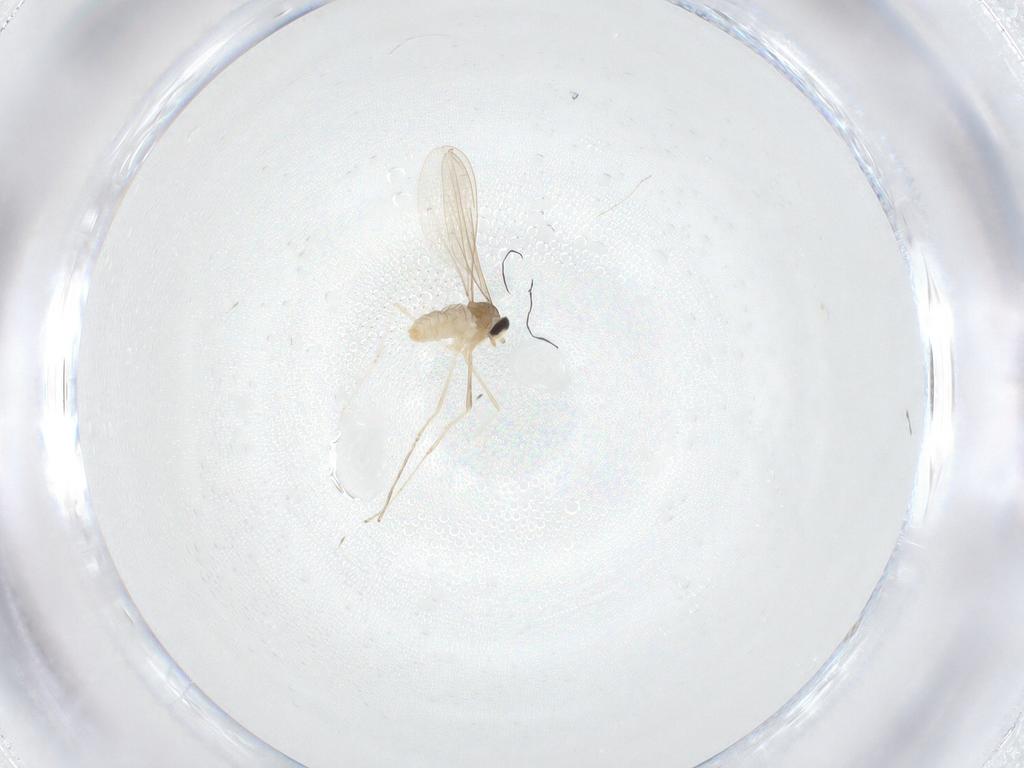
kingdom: Animalia
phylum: Arthropoda
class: Insecta
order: Diptera
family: Cecidomyiidae
